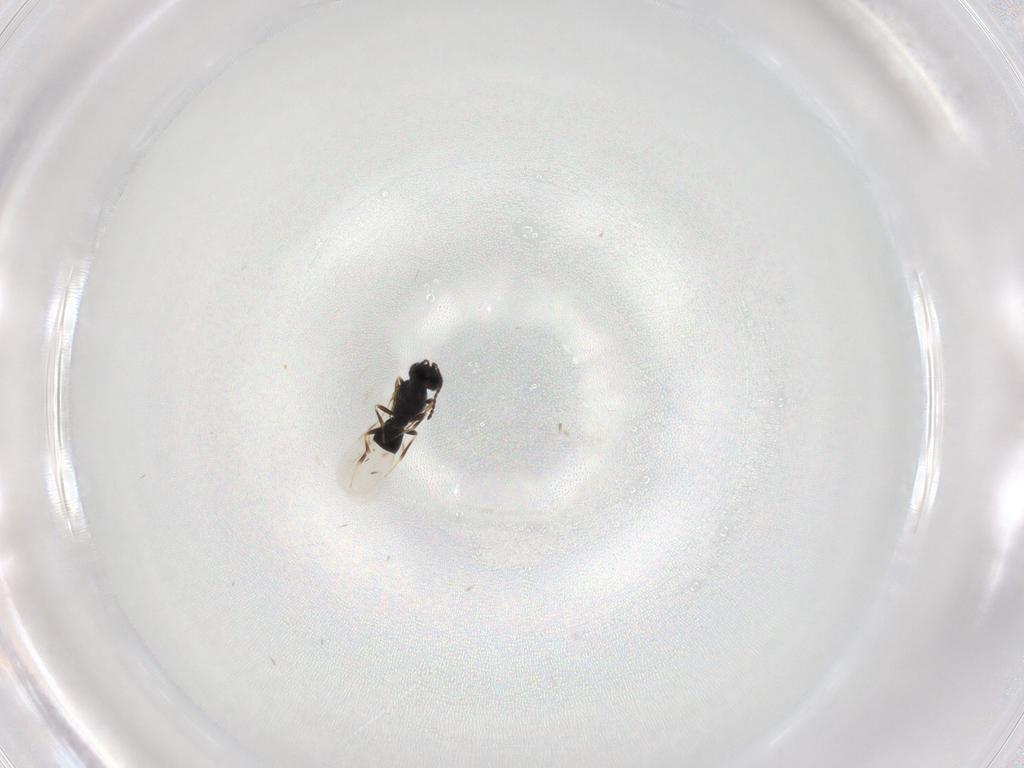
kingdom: Animalia
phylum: Arthropoda
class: Insecta
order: Hymenoptera
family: Scelionidae
